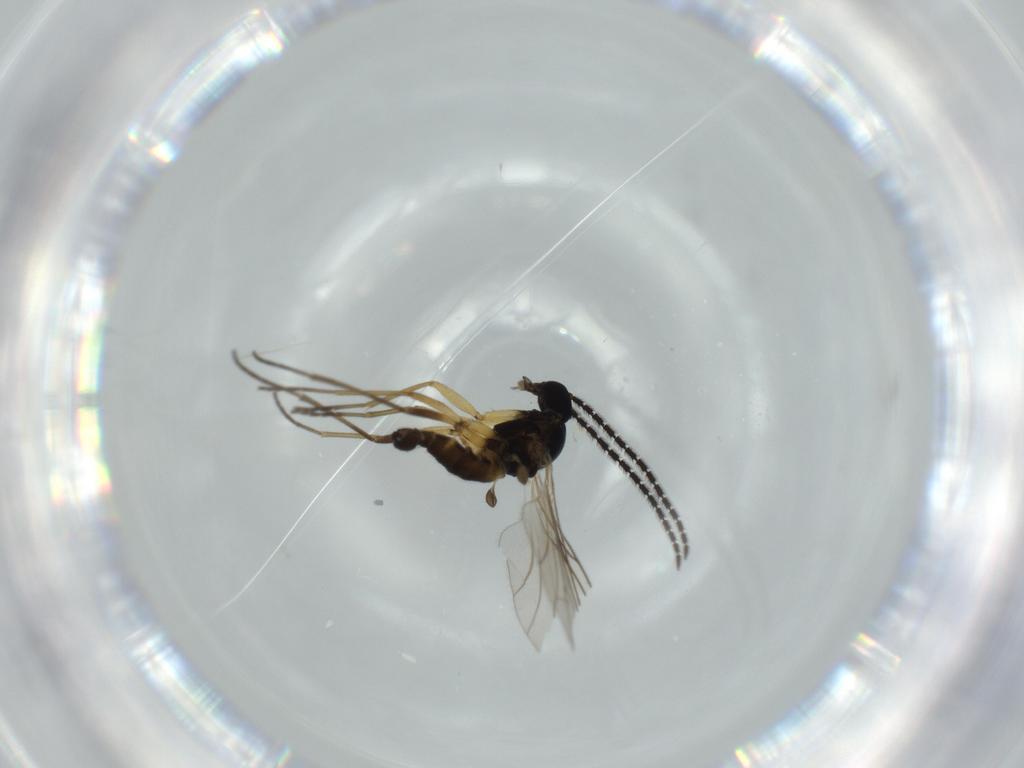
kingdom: Animalia
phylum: Arthropoda
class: Insecta
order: Diptera
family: Sciaridae
